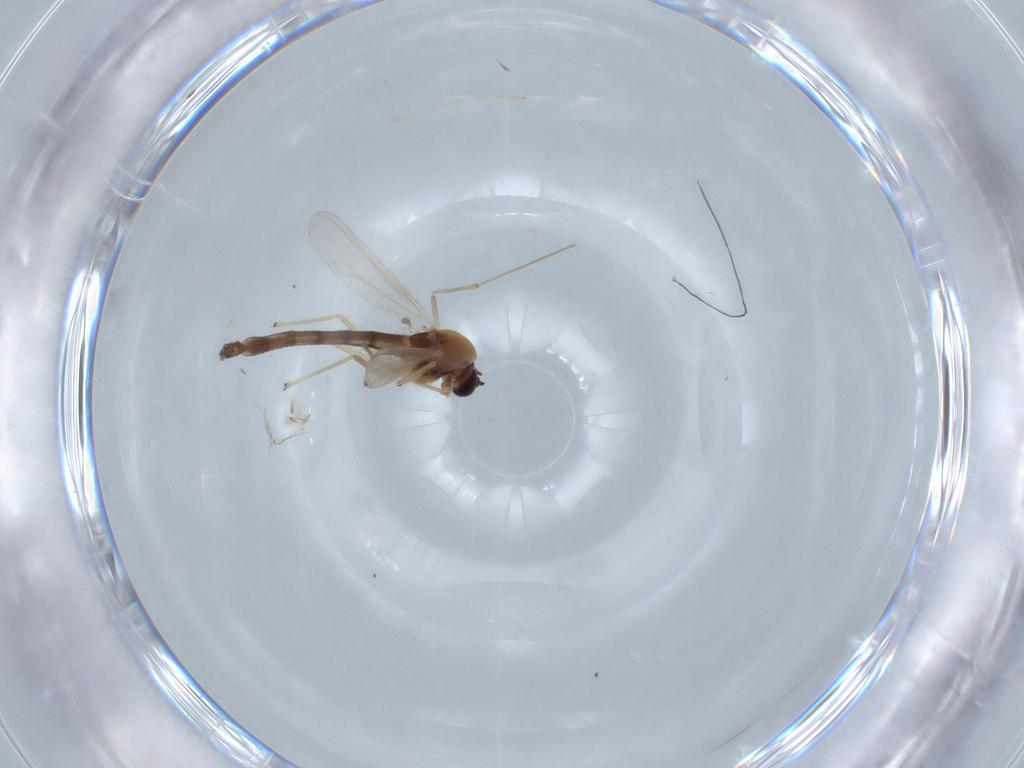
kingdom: Animalia
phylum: Arthropoda
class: Insecta
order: Diptera
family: Chironomidae
